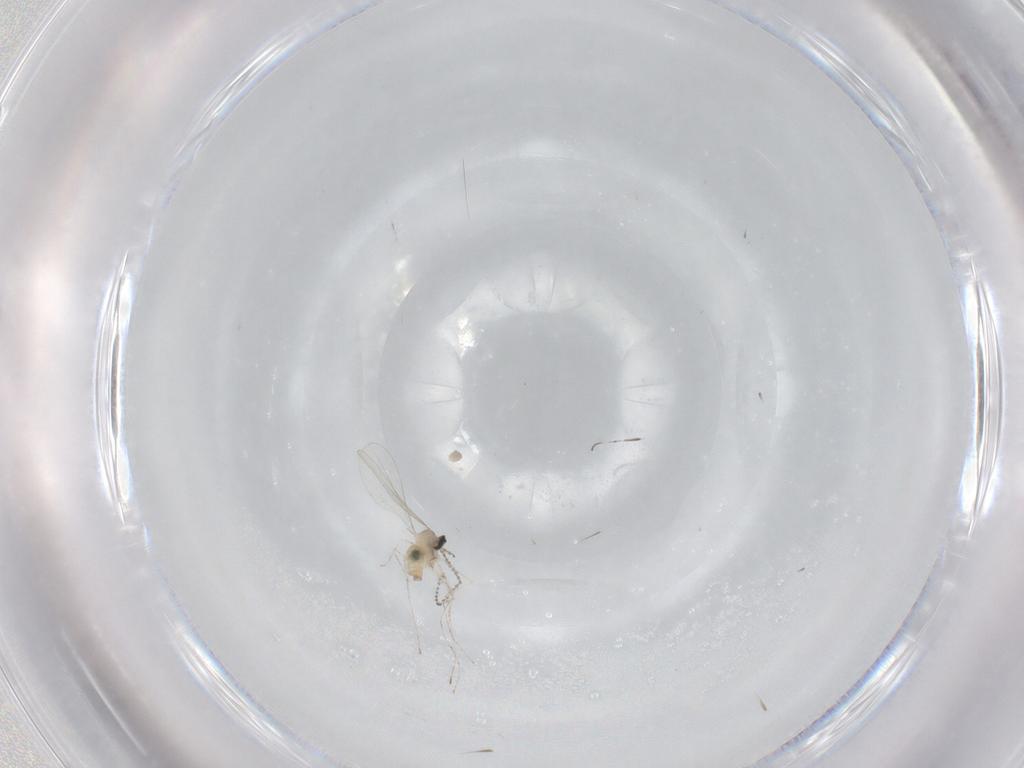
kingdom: Animalia
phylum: Arthropoda
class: Insecta
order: Diptera
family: Cecidomyiidae
